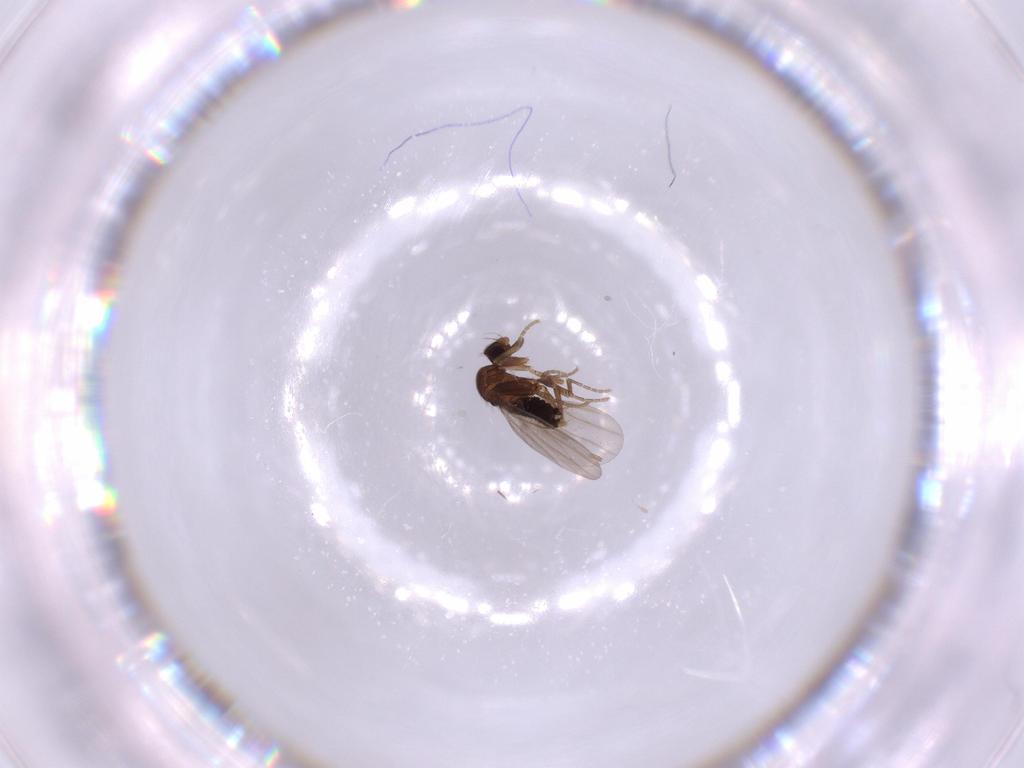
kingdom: Animalia
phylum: Arthropoda
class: Insecta
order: Diptera
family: Phoridae
